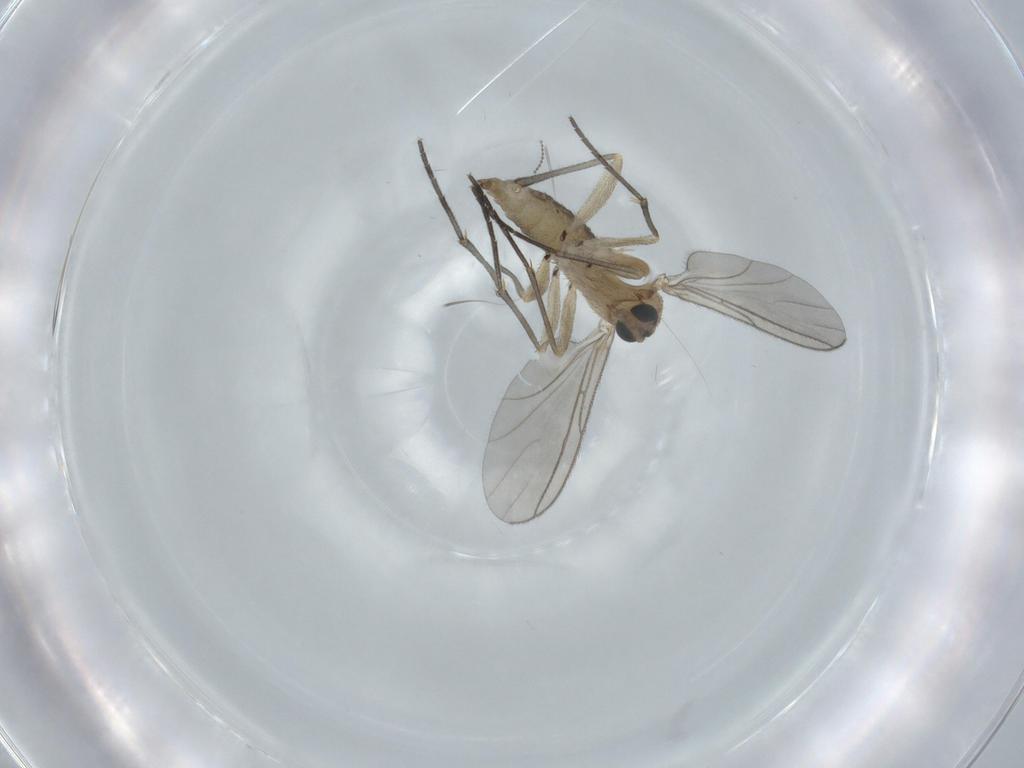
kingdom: Animalia
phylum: Arthropoda
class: Insecta
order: Diptera
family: Sciaridae
